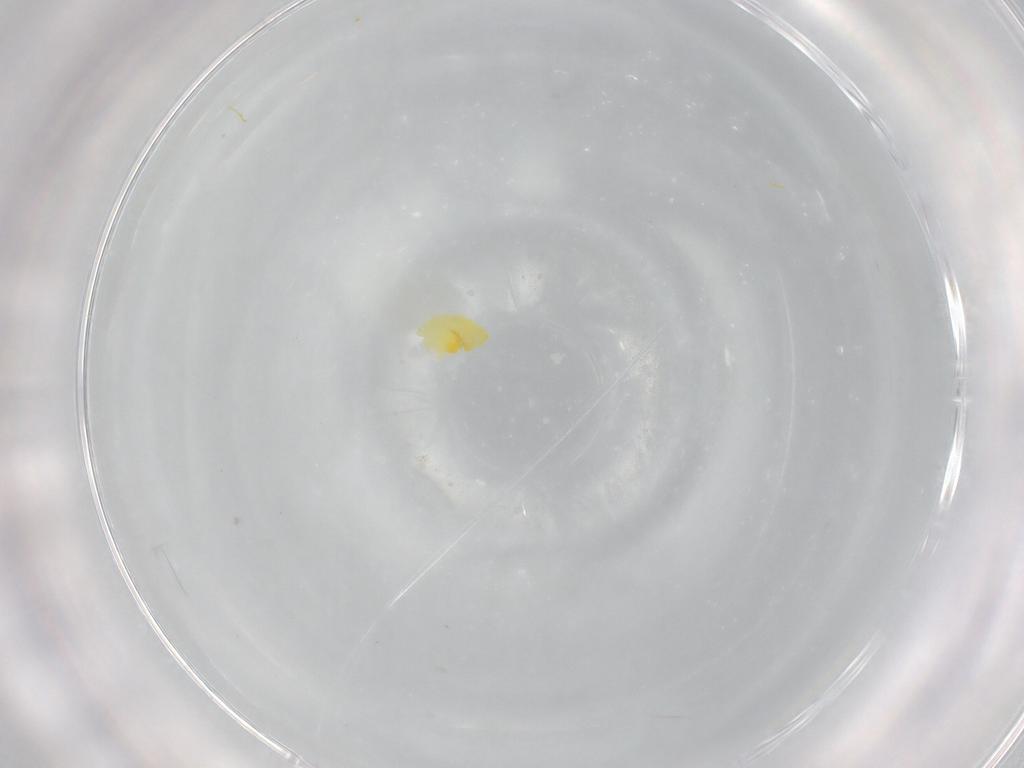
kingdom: Animalia
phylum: Arthropoda
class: Insecta
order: Hemiptera
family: Aleyrodidae
